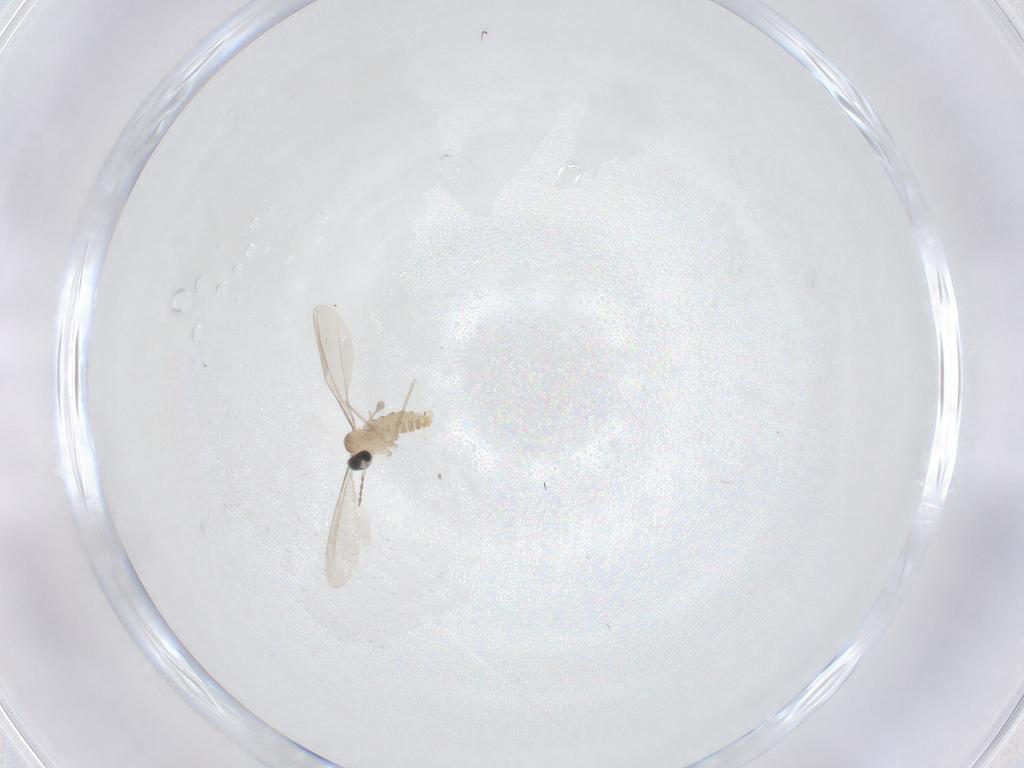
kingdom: Animalia
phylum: Arthropoda
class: Insecta
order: Diptera
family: Cecidomyiidae
